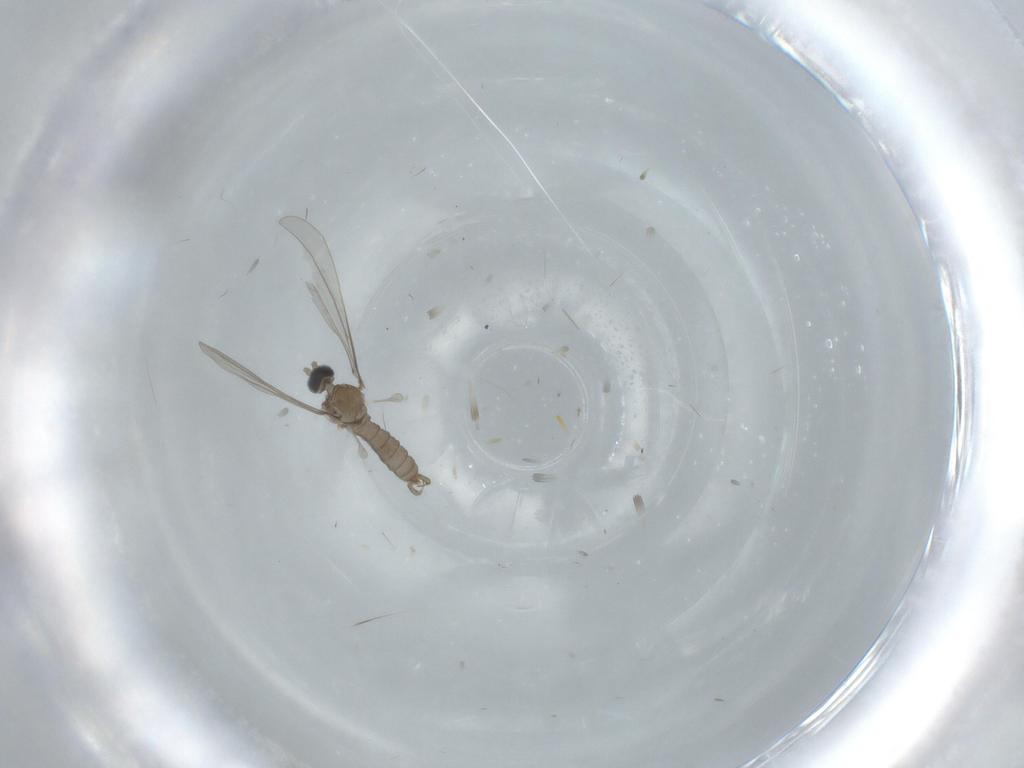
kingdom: Animalia
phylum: Arthropoda
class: Insecta
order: Diptera
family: Cecidomyiidae
